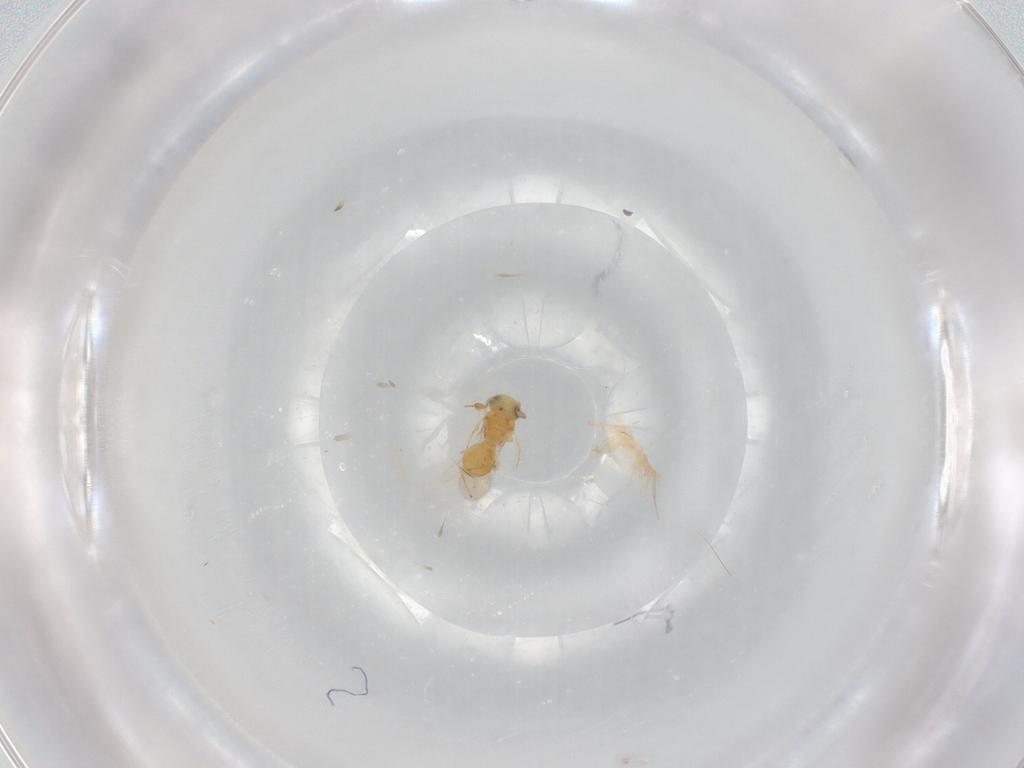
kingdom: Animalia
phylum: Arthropoda
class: Insecta
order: Hymenoptera
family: Scelionidae
